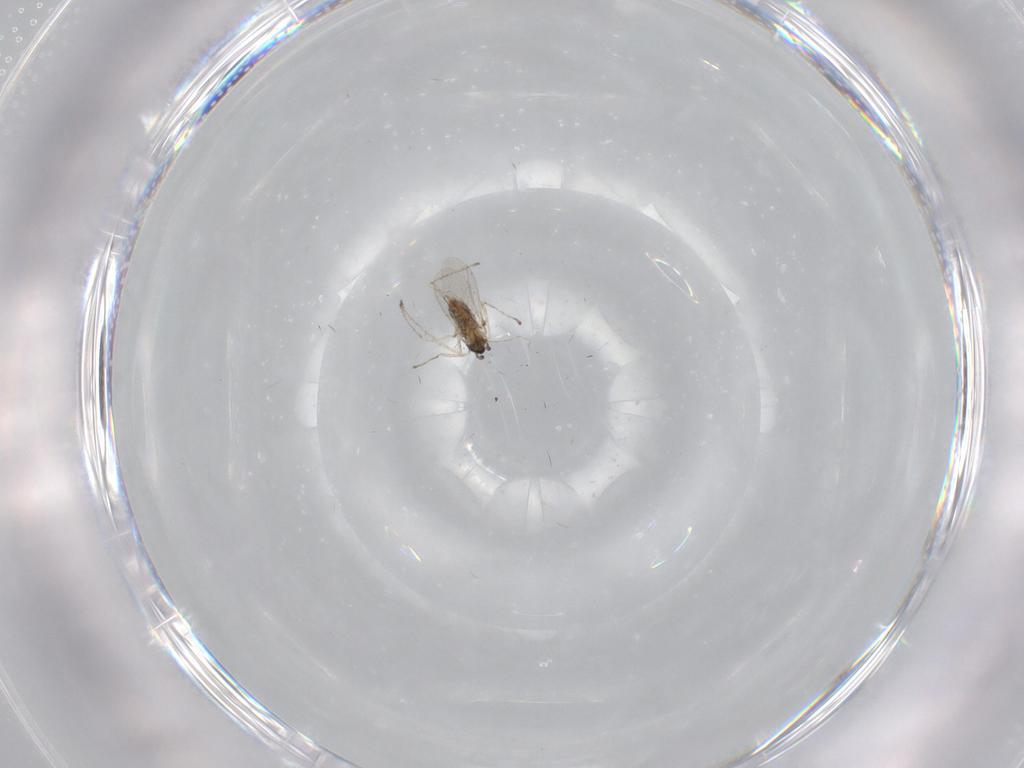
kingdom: Animalia
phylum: Arthropoda
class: Insecta
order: Diptera
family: Cecidomyiidae
